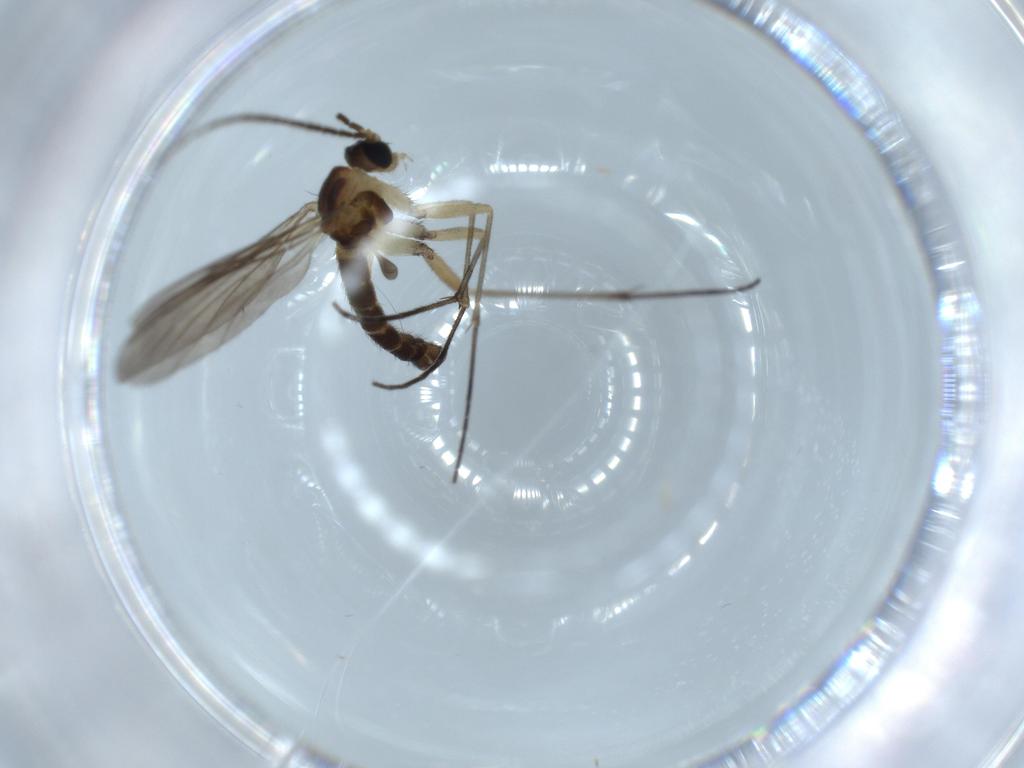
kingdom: Animalia
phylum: Arthropoda
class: Insecta
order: Diptera
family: Sciaridae
